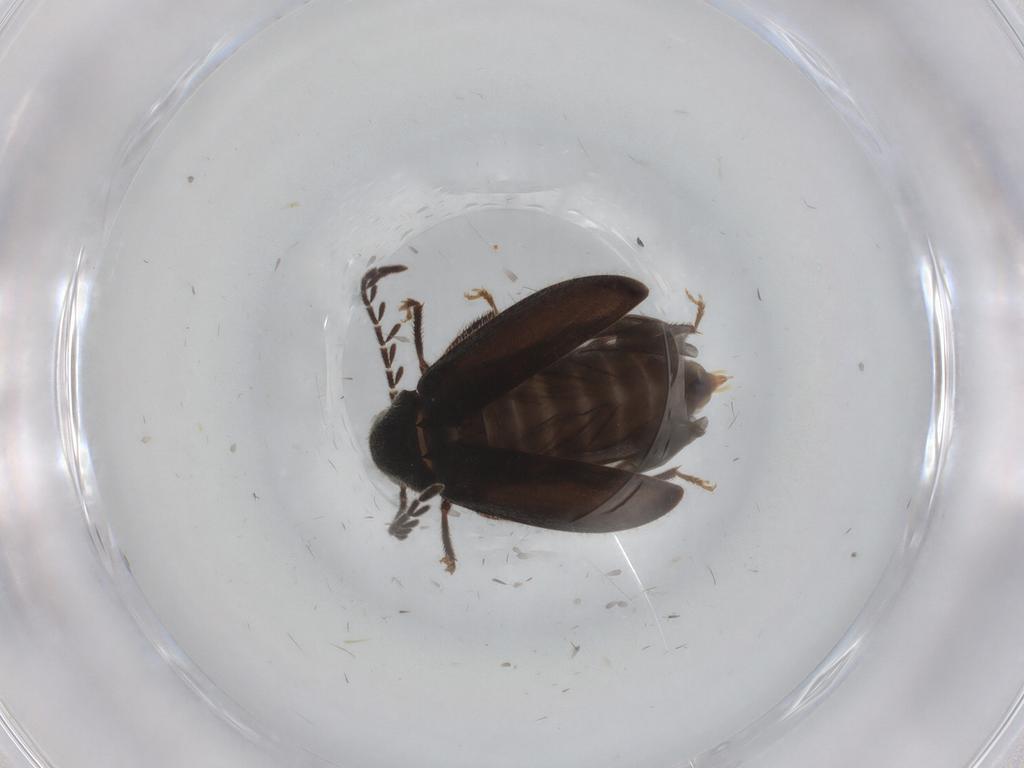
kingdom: Animalia
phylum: Arthropoda
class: Insecta
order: Coleoptera
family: Ptilodactylidae
